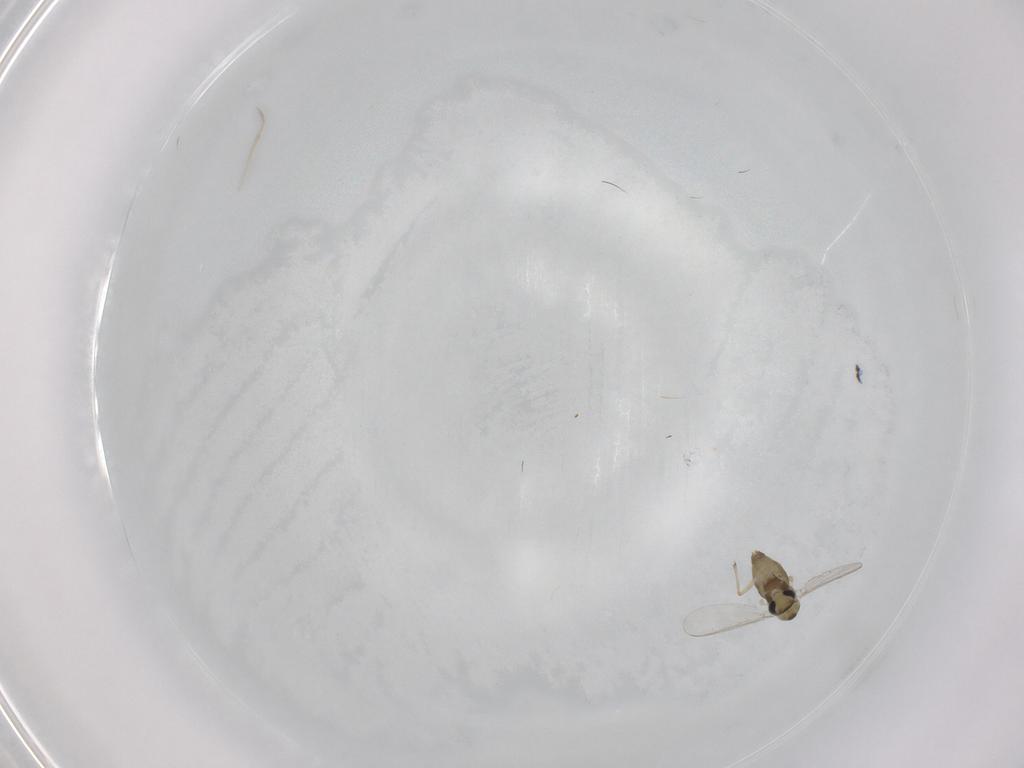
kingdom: Animalia
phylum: Arthropoda
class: Insecta
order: Diptera
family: Chironomidae
